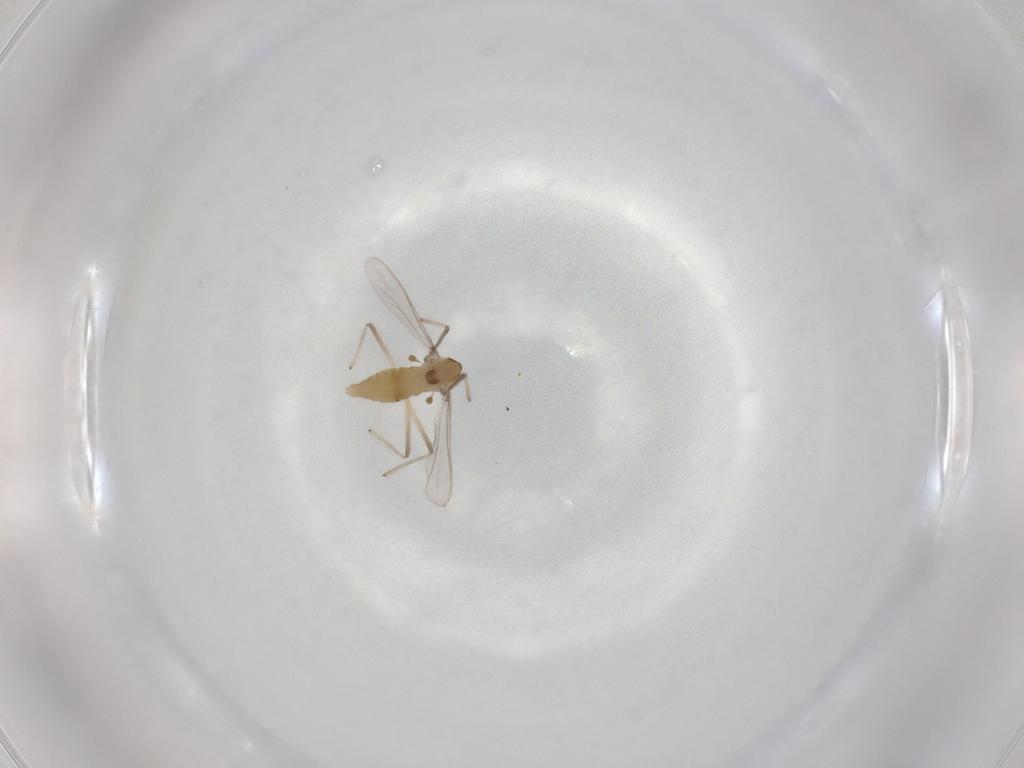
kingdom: Animalia
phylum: Arthropoda
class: Insecta
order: Diptera
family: Chironomidae
